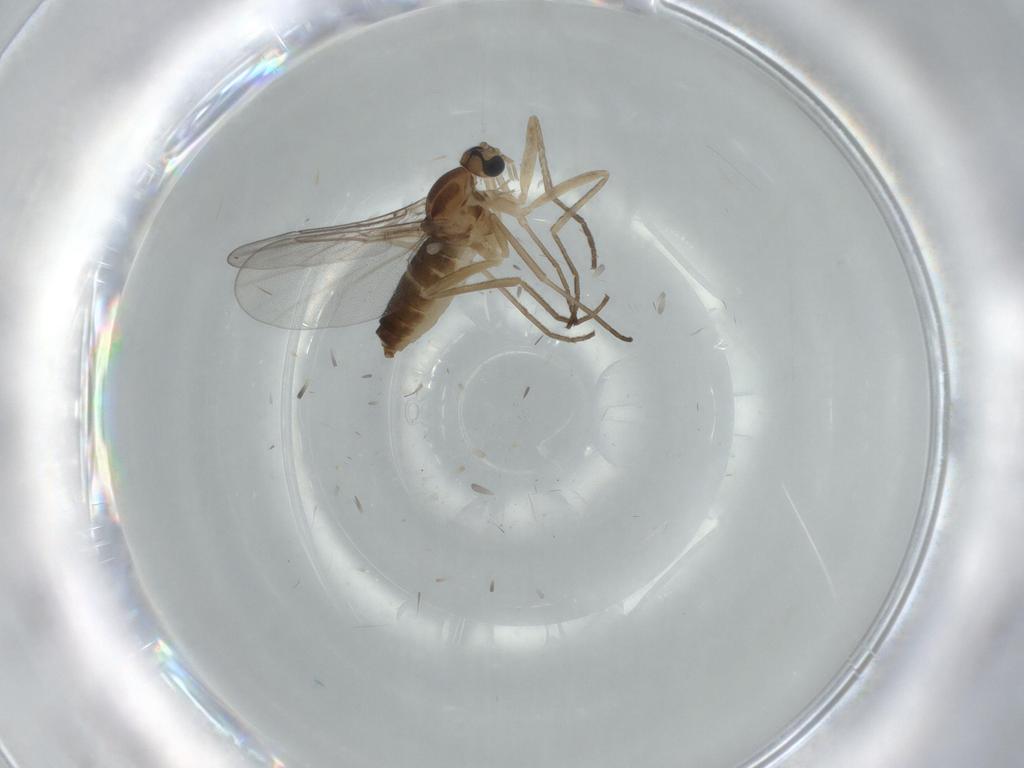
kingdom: Animalia
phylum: Arthropoda
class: Insecta
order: Diptera
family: Cecidomyiidae
